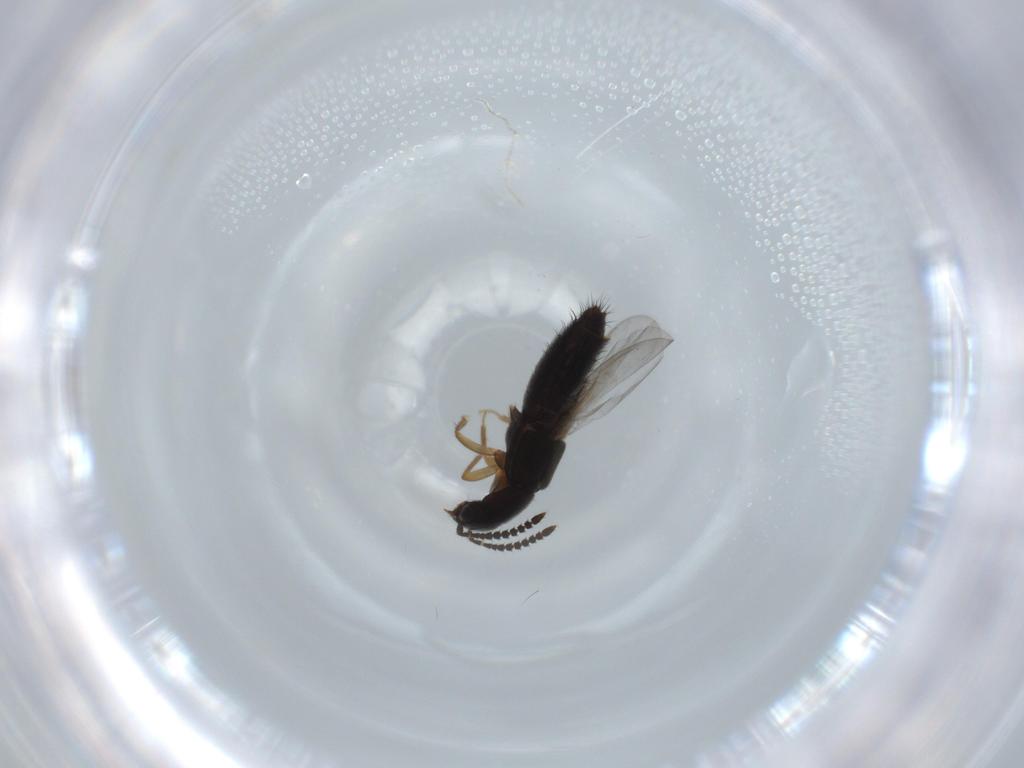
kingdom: Animalia
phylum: Arthropoda
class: Insecta
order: Coleoptera
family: Staphylinidae
